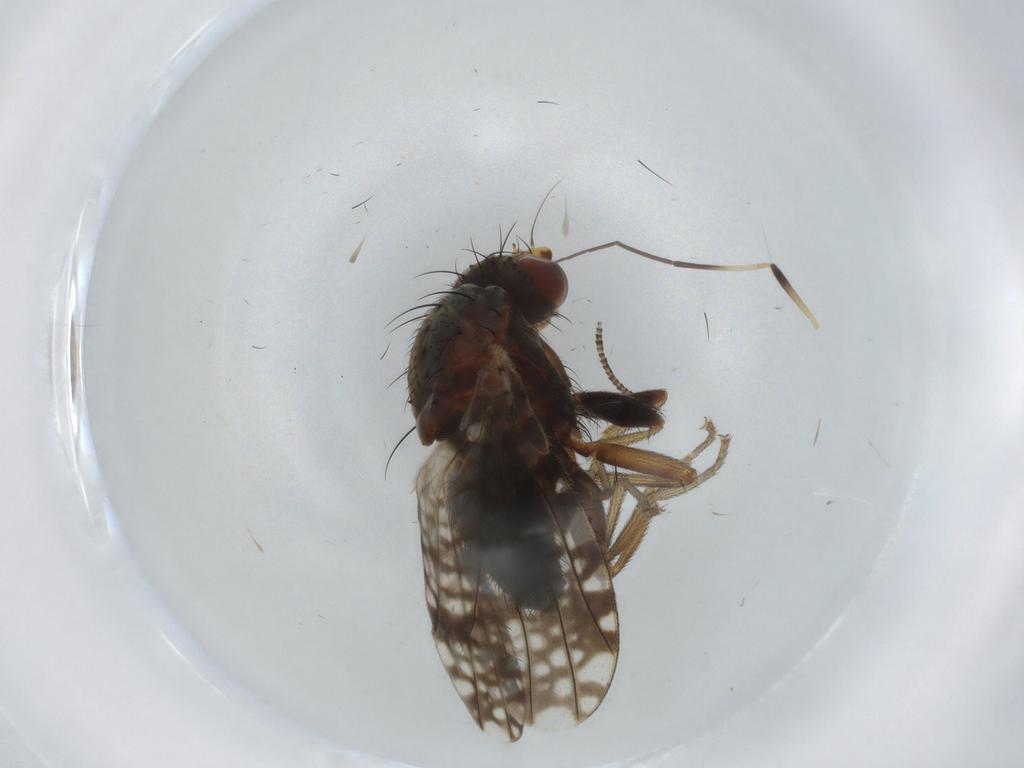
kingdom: Animalia
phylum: Arthropoda
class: Insecta
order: Diptera
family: Tephritidae
